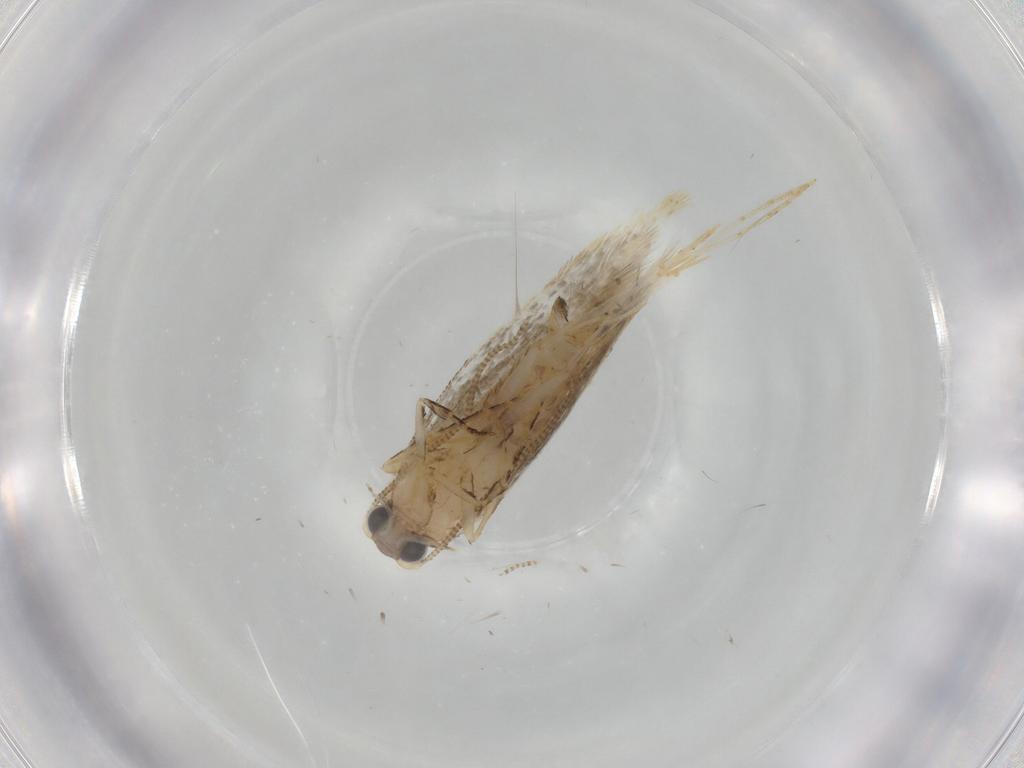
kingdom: Animalia
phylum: Arthropoda
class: Insecta
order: Lepidoptera
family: Tineidae
